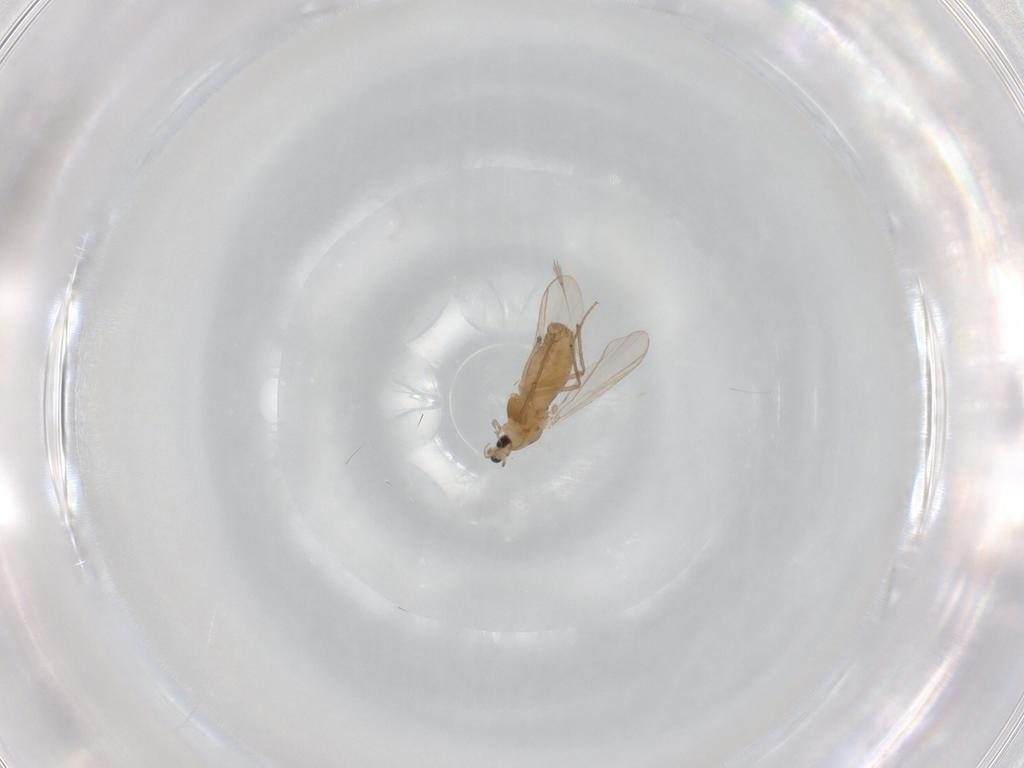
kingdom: Animalia
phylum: Arthropoda
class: Insecta
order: Diptera
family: Chironomidae
